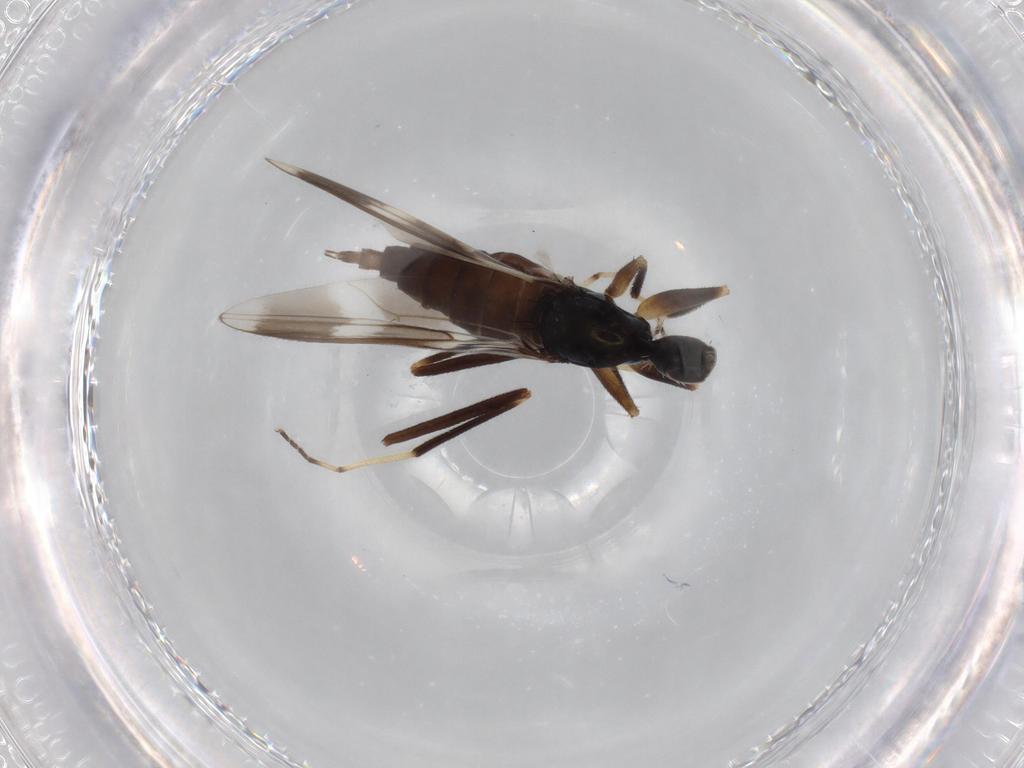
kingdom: Animalia
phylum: Arthropoda
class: Insecta
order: Diptera
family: Hybotidae
